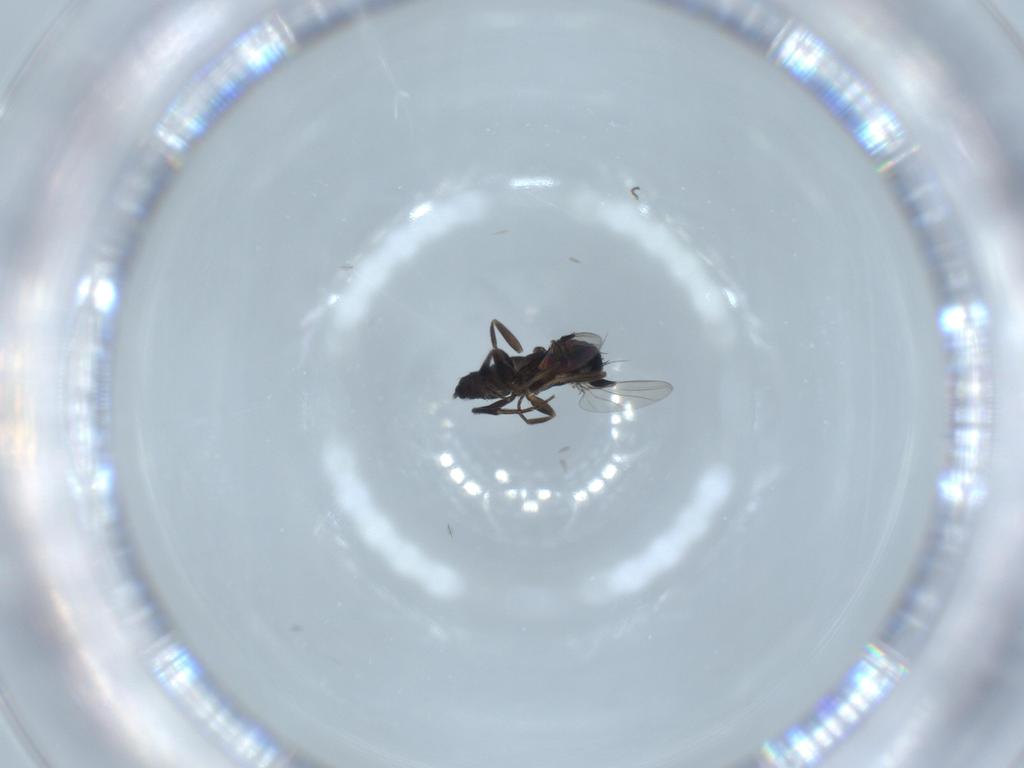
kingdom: Animalia
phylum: Arthropoda
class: Insecta
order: Diptera
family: Phoridae
